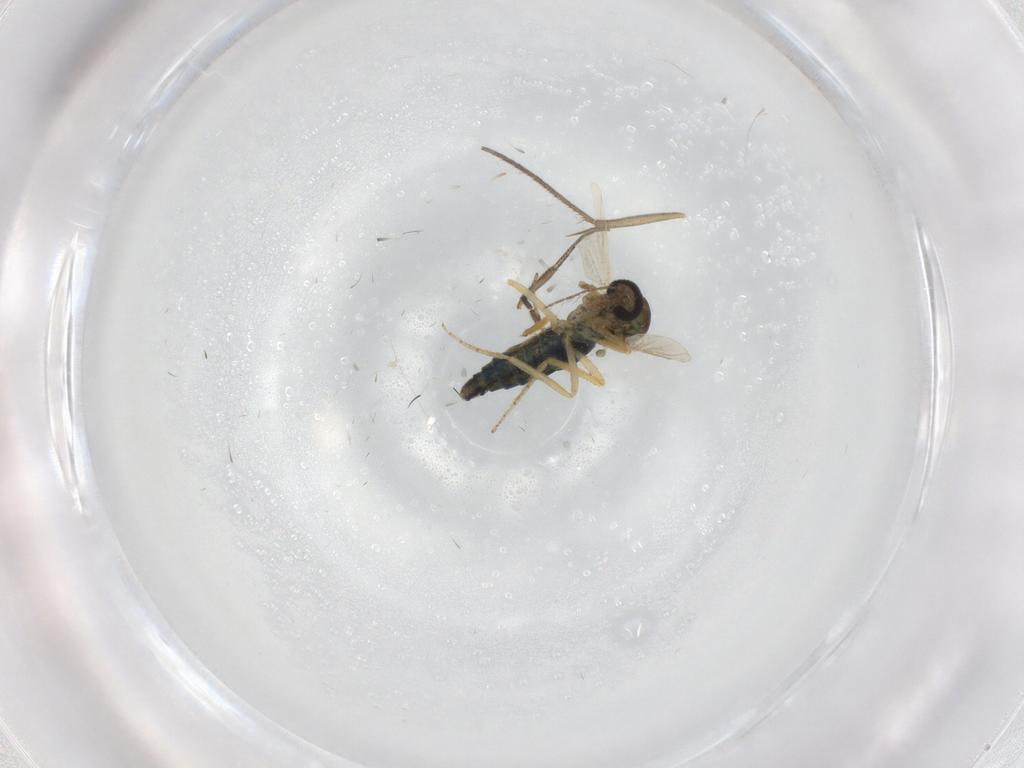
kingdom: Animalia
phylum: Arthropoda
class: Insecta
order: Diptera
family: Ceratopogonidae
